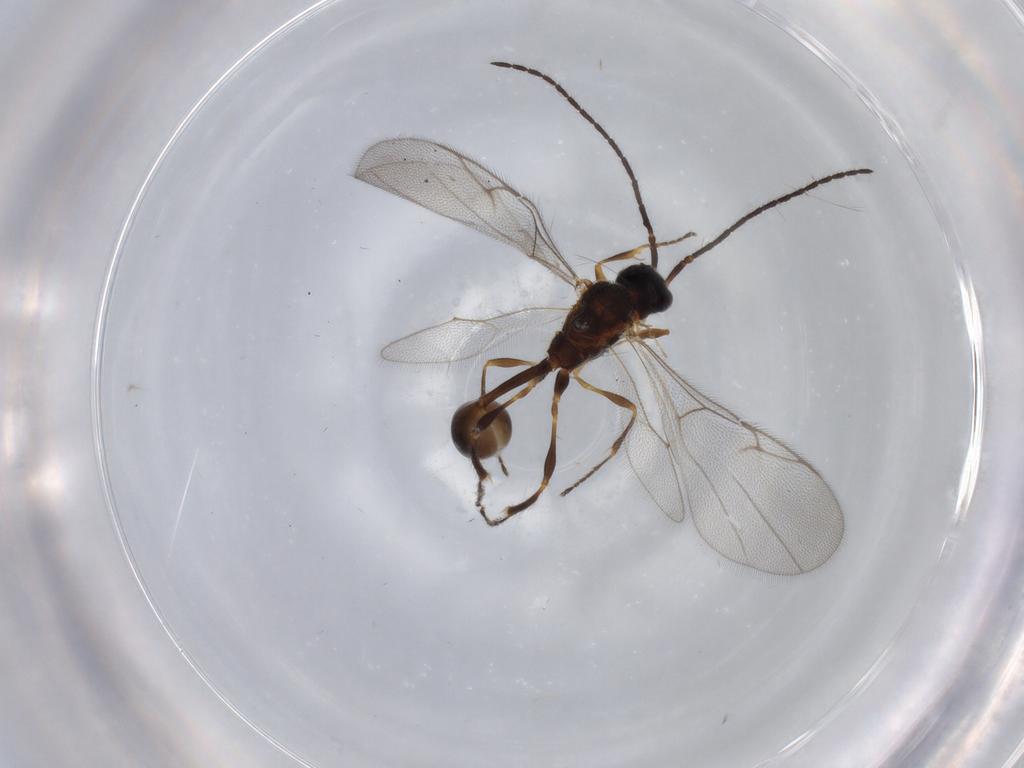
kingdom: Animalia
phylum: Arthropoda
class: Insecta
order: Hymenoptera
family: Diapriidae
